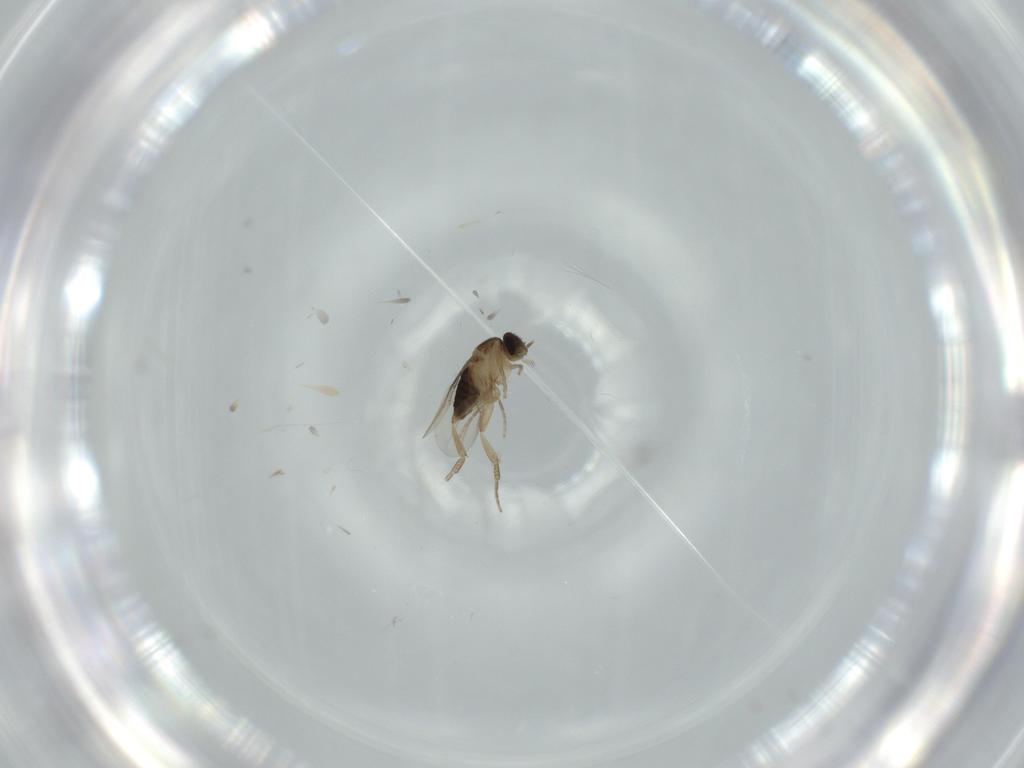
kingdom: Animalia
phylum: Arthropoda
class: Insecta
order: Diptera
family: Phoridae
